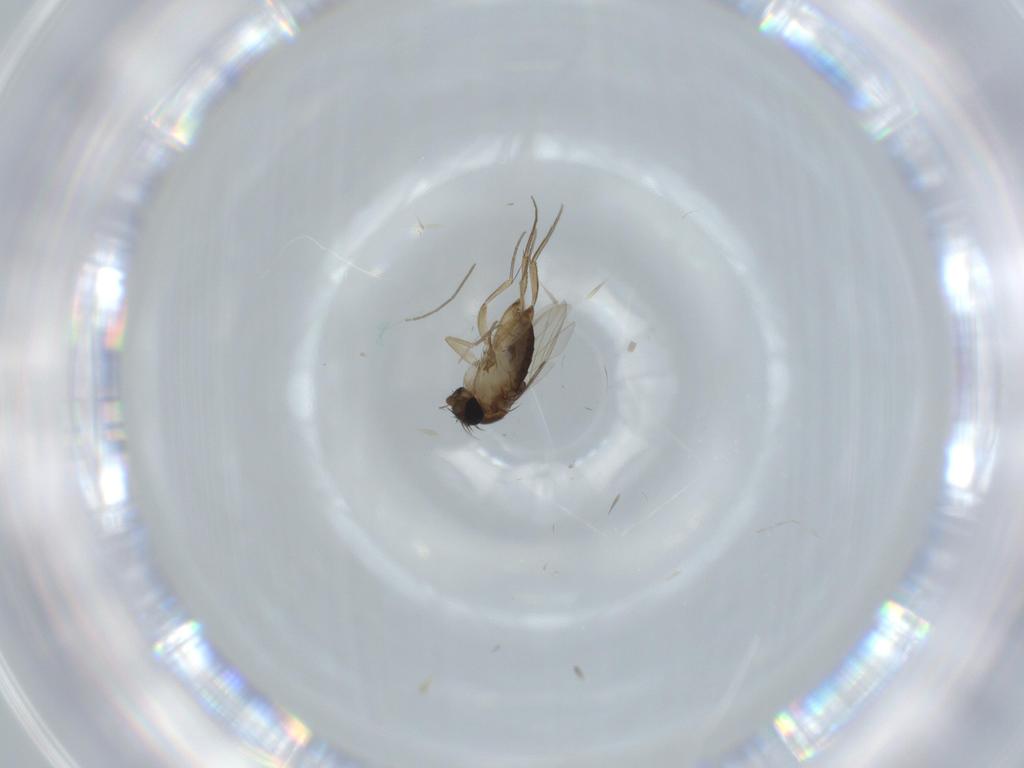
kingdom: Animalia
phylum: Arthropoda
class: Insecta
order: Diptera
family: Phoridae
